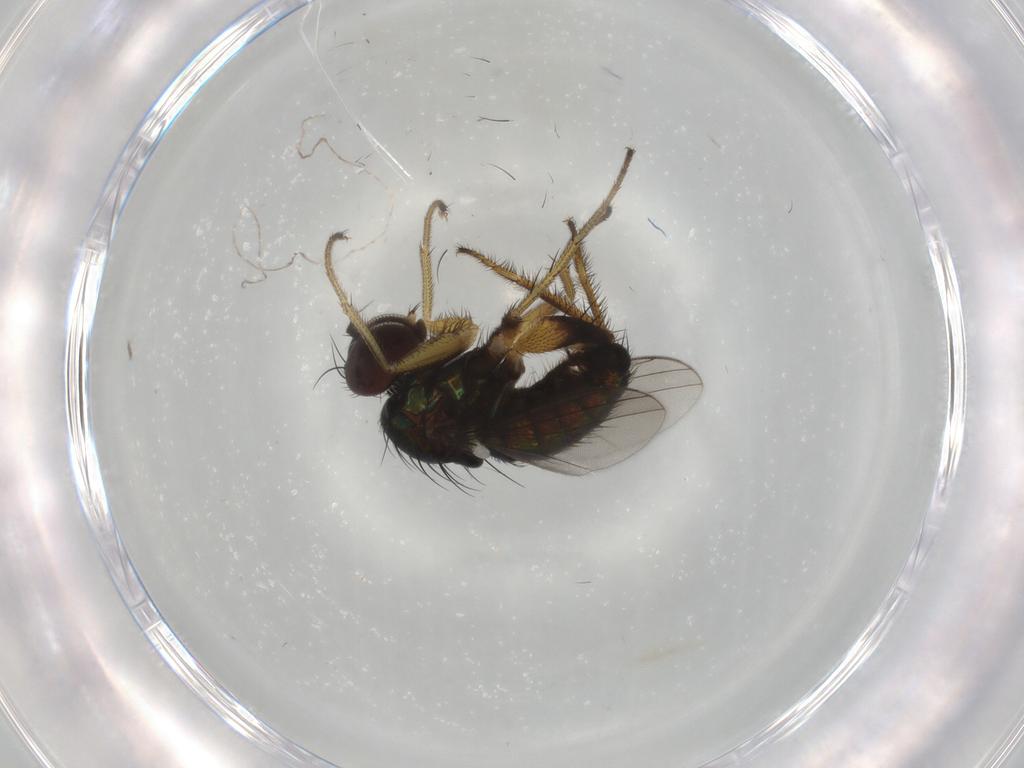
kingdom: Animalia
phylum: Arthropoda
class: Insecta
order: Diptera
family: Dolichopodidae
